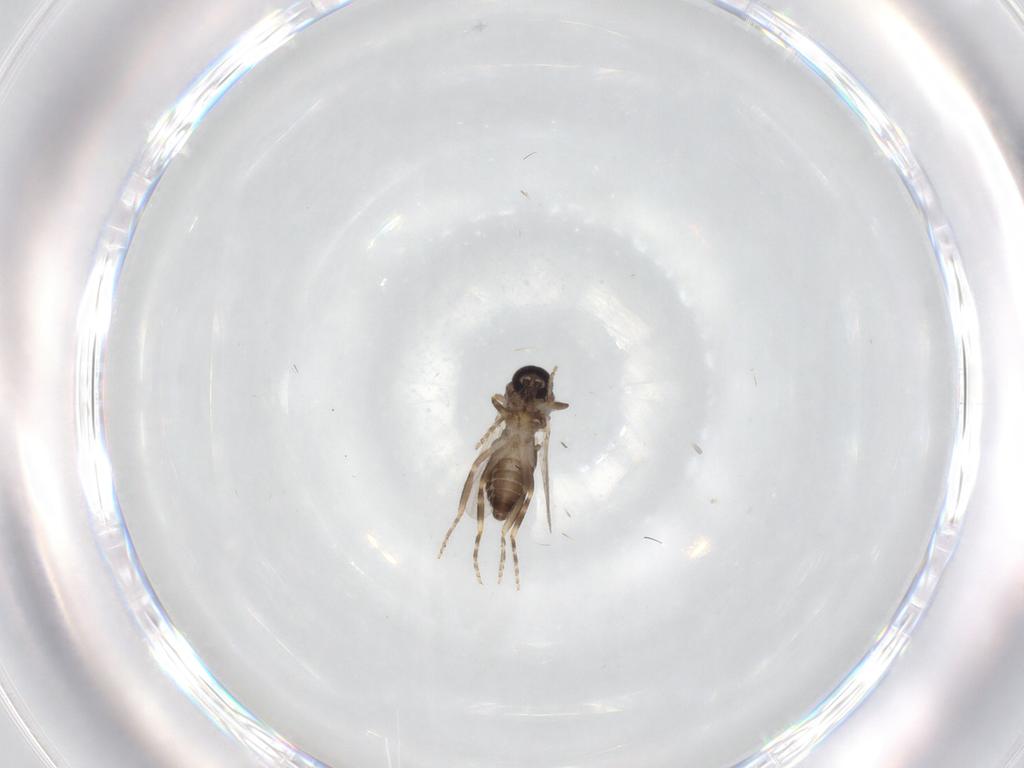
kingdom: Animalia
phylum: Arthropoda
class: Insecta
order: Diptera
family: Ceratopogonidae
